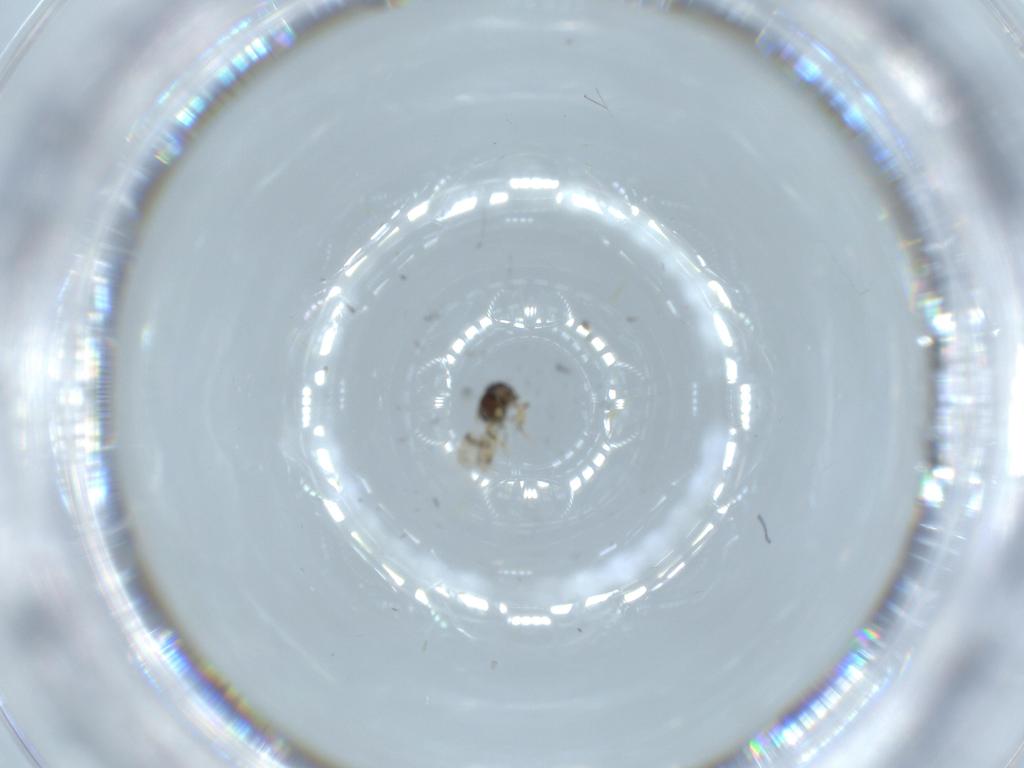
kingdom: Animalia
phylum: Arthropoda
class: Insecta
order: Hymenoptera
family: Scelionidae
